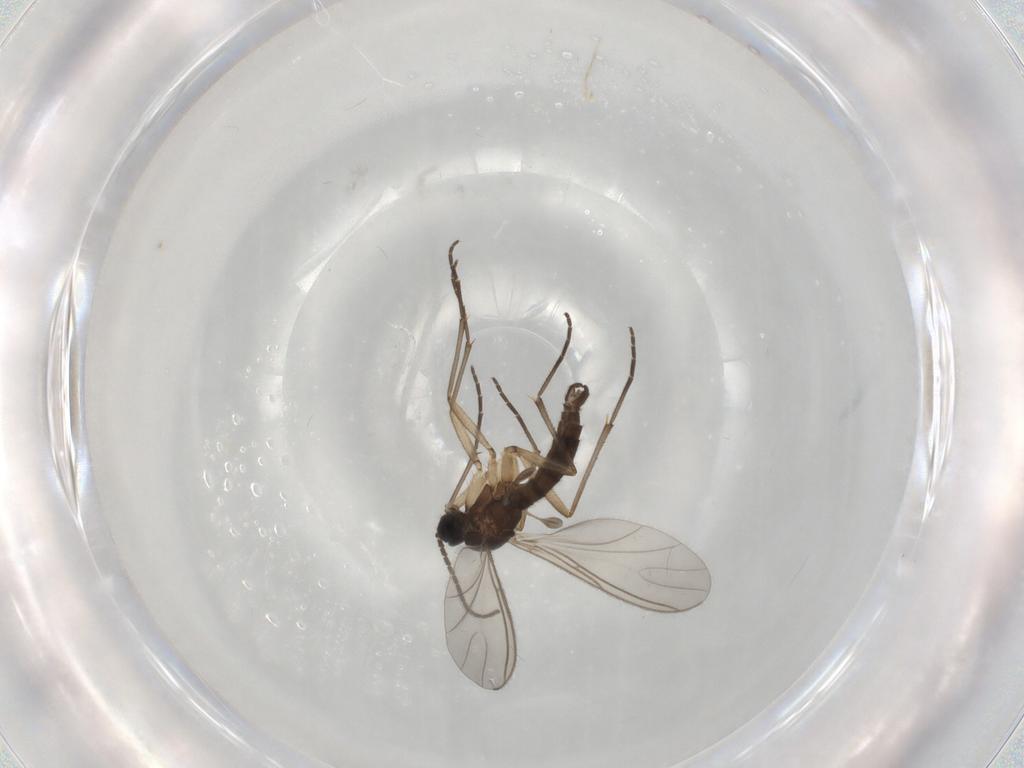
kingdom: Animalia
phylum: Arthropoda
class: Insecta
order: Diptera
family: Sciaridae
